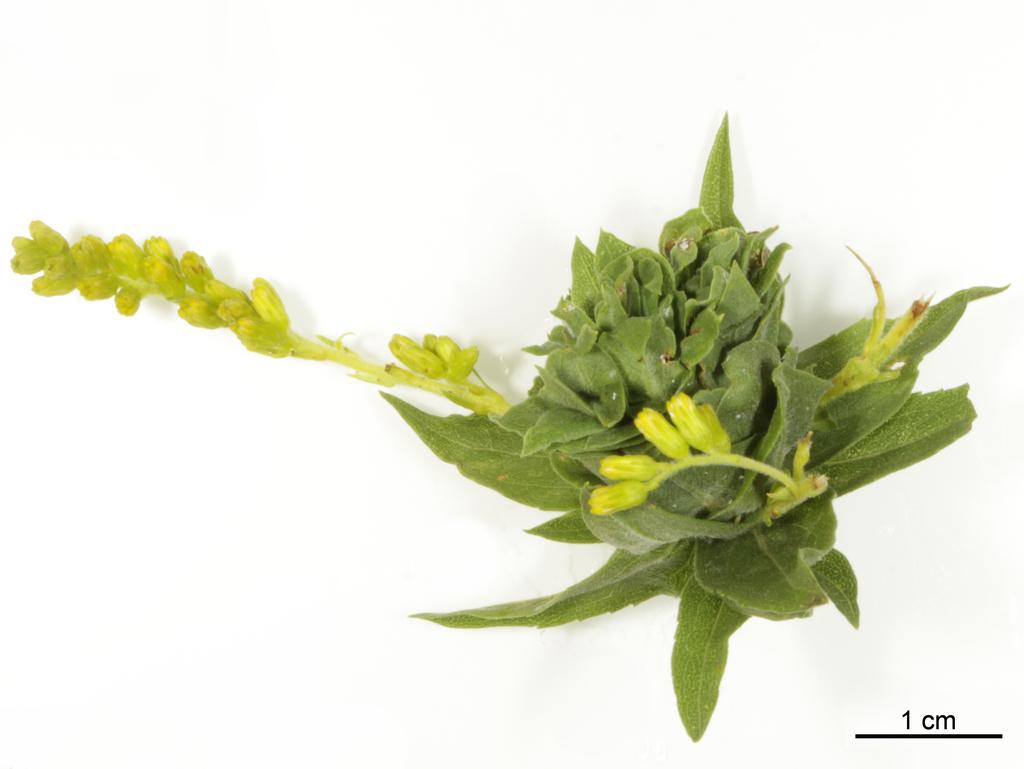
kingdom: Animalia
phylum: Arthropoda
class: Insecta
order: Hymenoptera
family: Eulophidae
